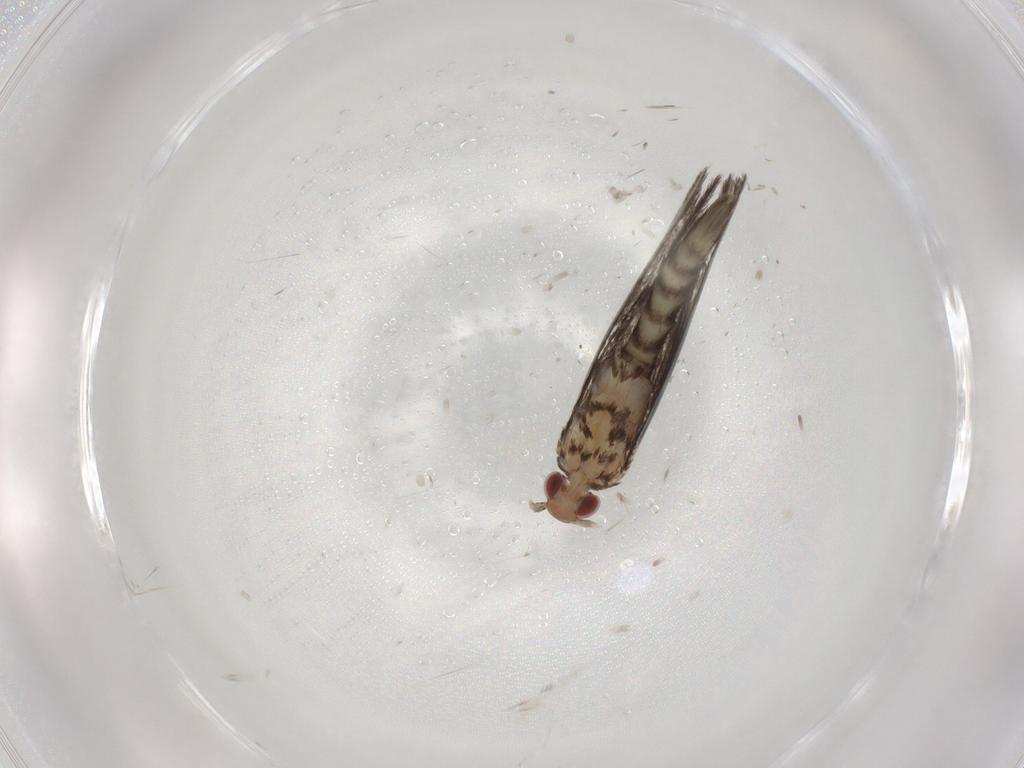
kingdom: Animalia
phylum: Arthropoda
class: Insecta
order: Lepidoptera
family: Gracillariidae
